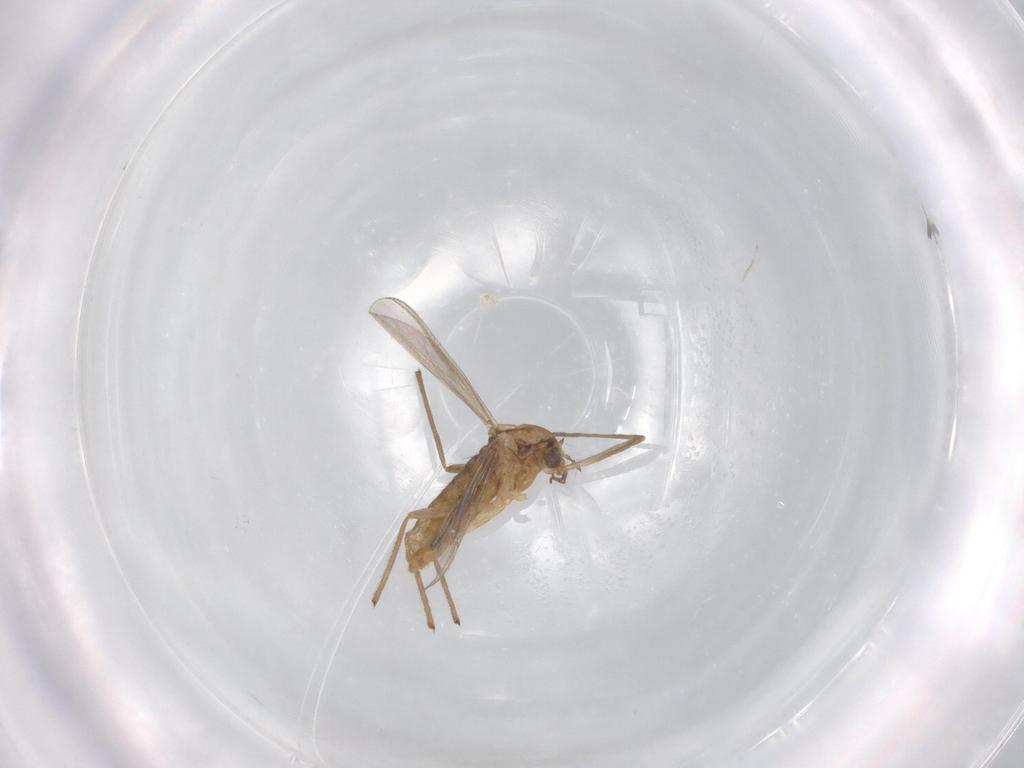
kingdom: Animalia
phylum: Arthropoda
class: Insecta
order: Diptera
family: Chironomidae
